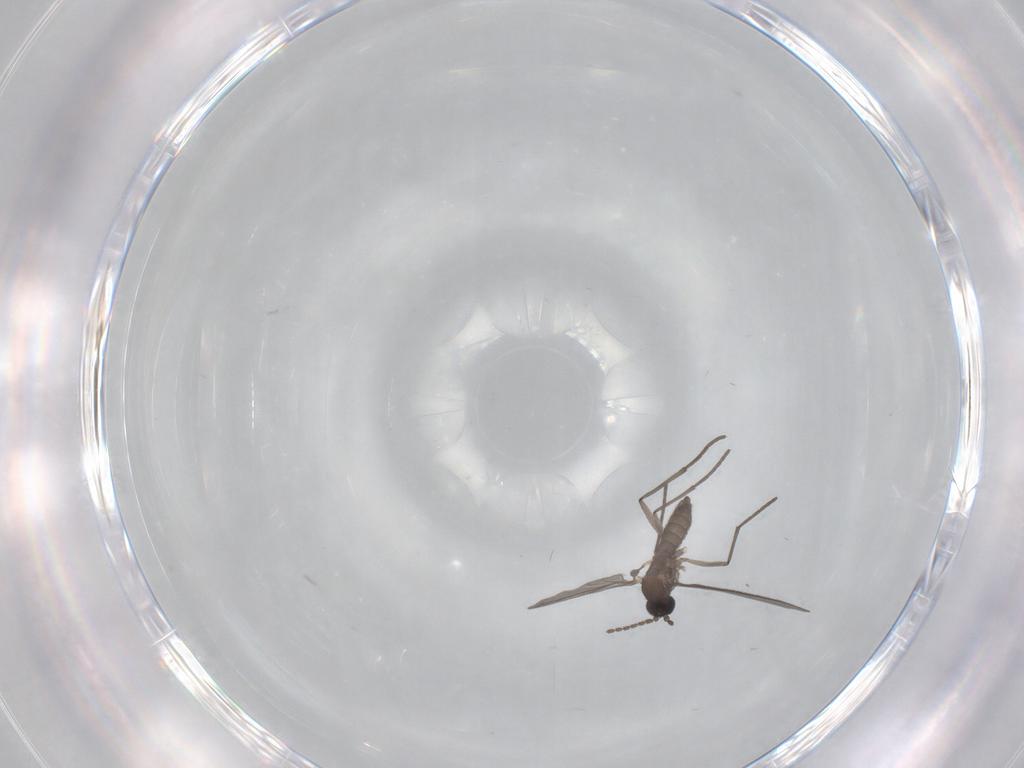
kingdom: Animalia
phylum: Arthropoda
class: Insecta
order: Diptera
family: Sciaridae
